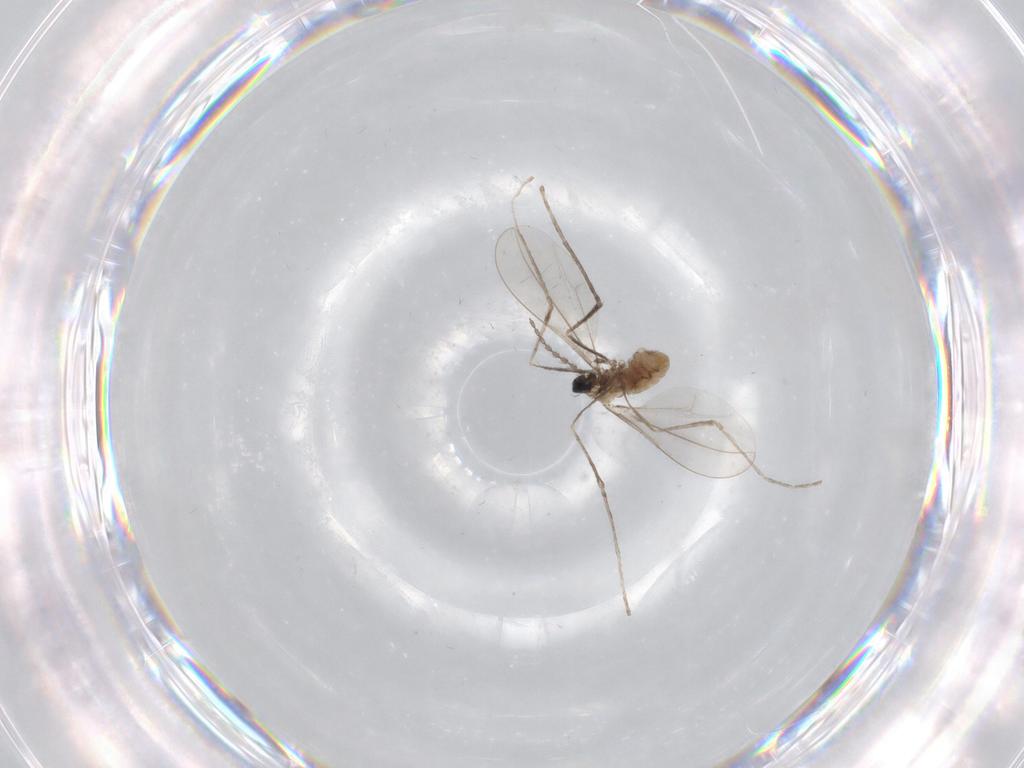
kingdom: Animalia
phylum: Arthropoda
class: Insecta
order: Diptera
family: Cecidomyiidae
